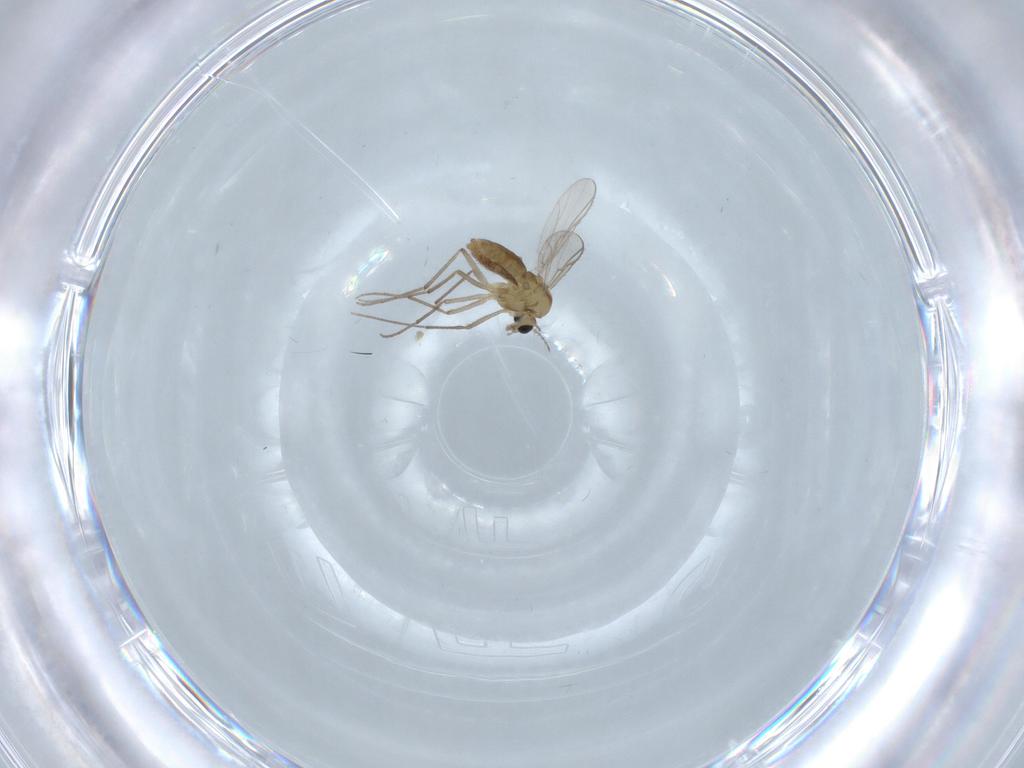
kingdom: Animalia
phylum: Arthropoda
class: Insecta
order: Diptera
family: Chironomidae
